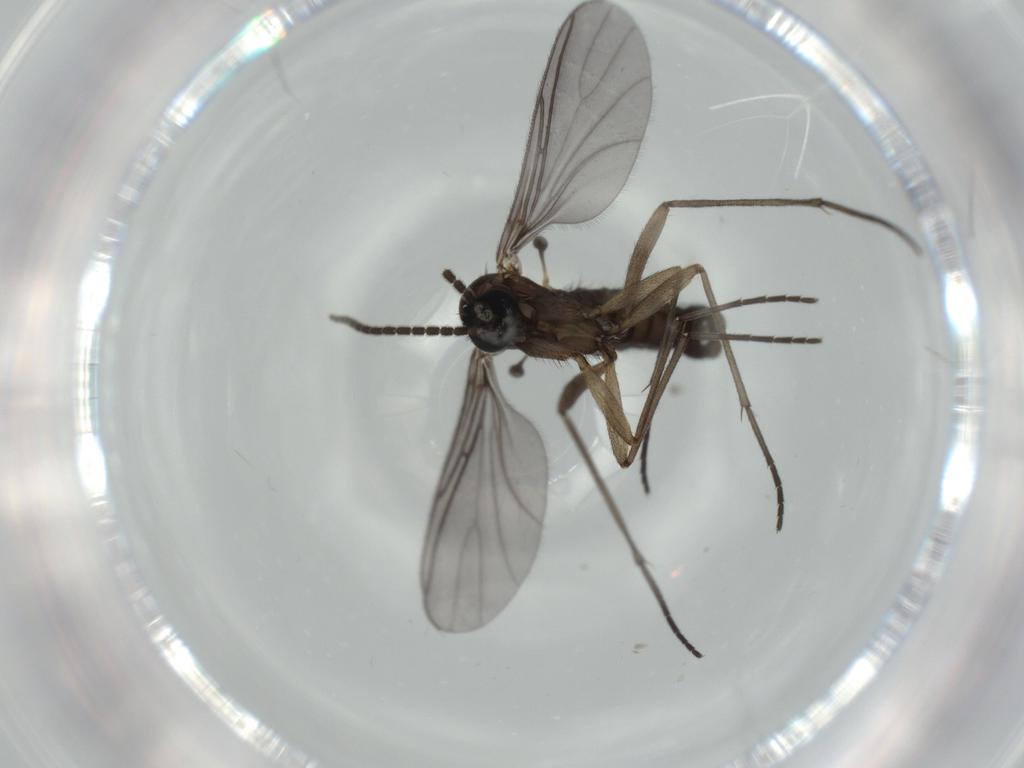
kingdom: Animalia
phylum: Arthropoda
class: Insecta
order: Diptera
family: Sciaridae
